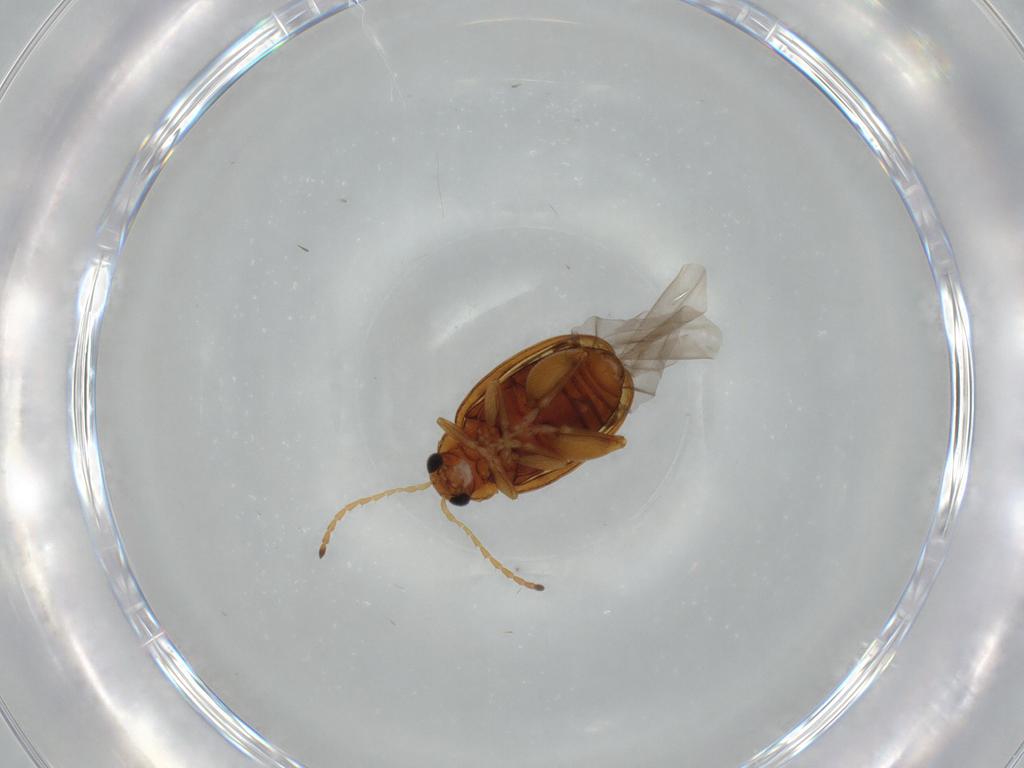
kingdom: Animalia
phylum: Arthropoda
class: Insecta
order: Coleoptera
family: Chrysomelidae
